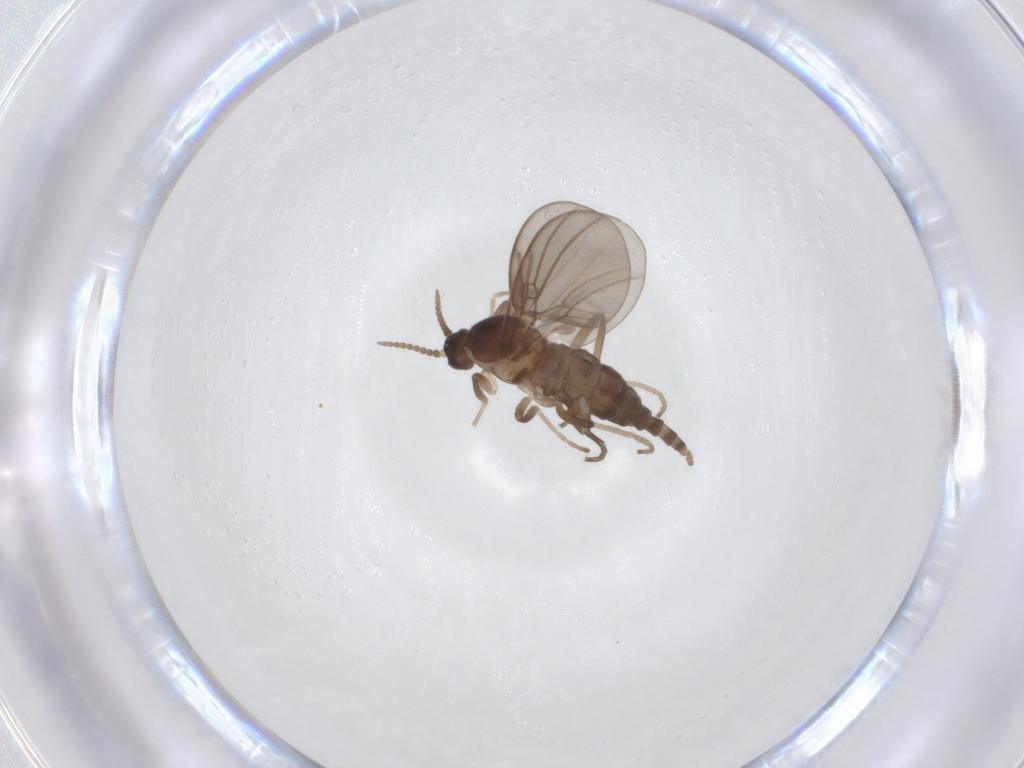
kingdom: Animalia
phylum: Arthropoda
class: Insecta
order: Diptera
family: Cecidomyiidae
